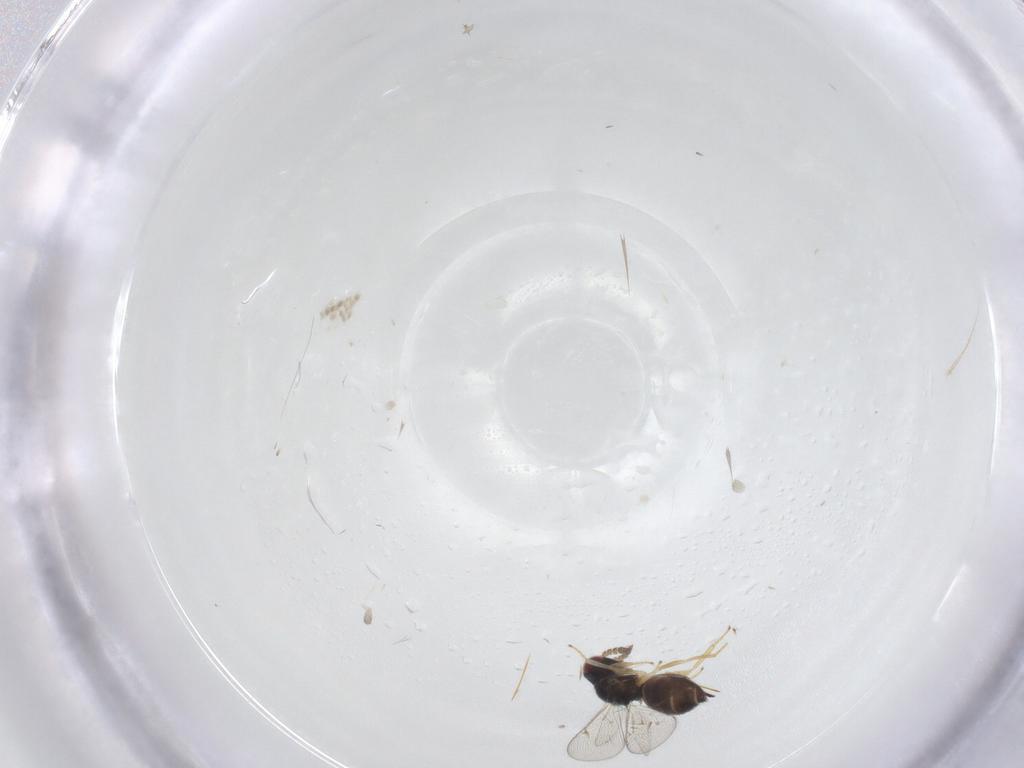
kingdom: Animalia
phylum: Arthropoda
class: Insecta
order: Hymenoptera
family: Eulophidae
